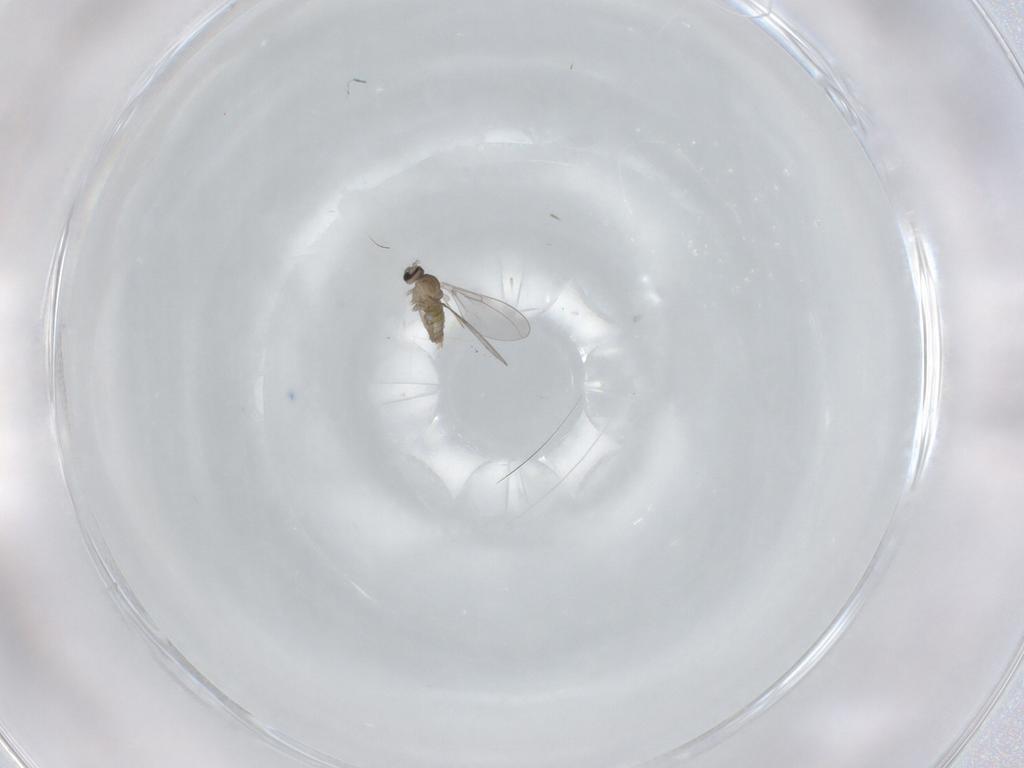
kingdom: Animalia
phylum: Arthropoda
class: Insecta
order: Diptera
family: Cecidomyiidae
